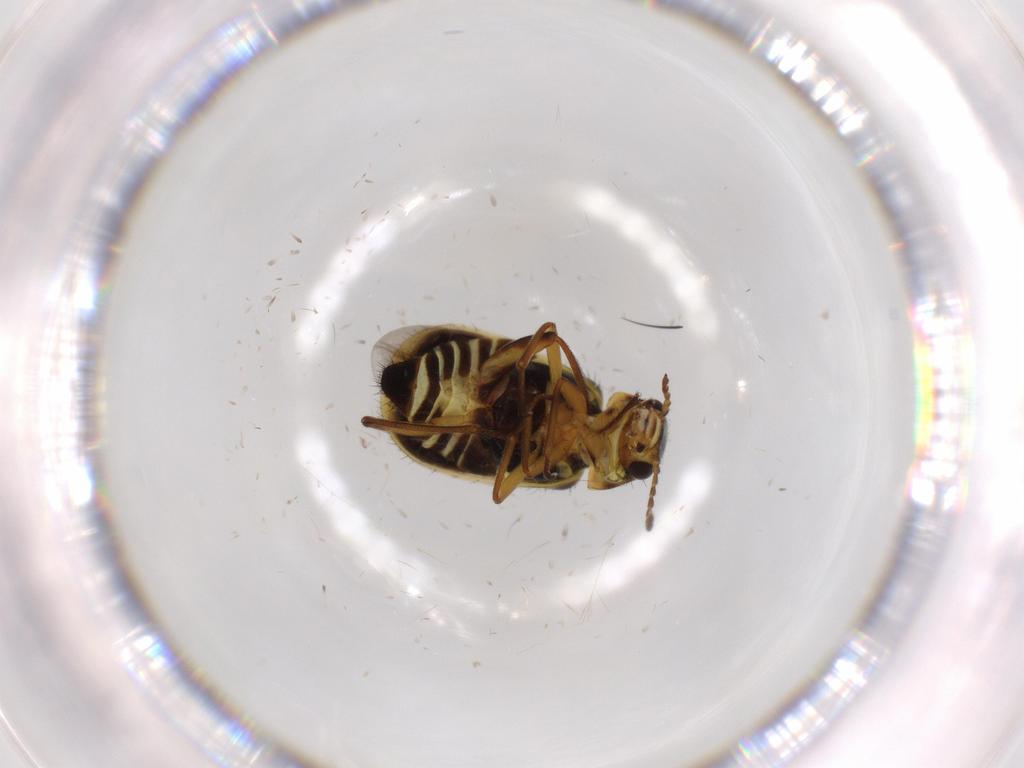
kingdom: Animalia
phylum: Arthropoda
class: Insecta
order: Coleoptera
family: Melyridae
